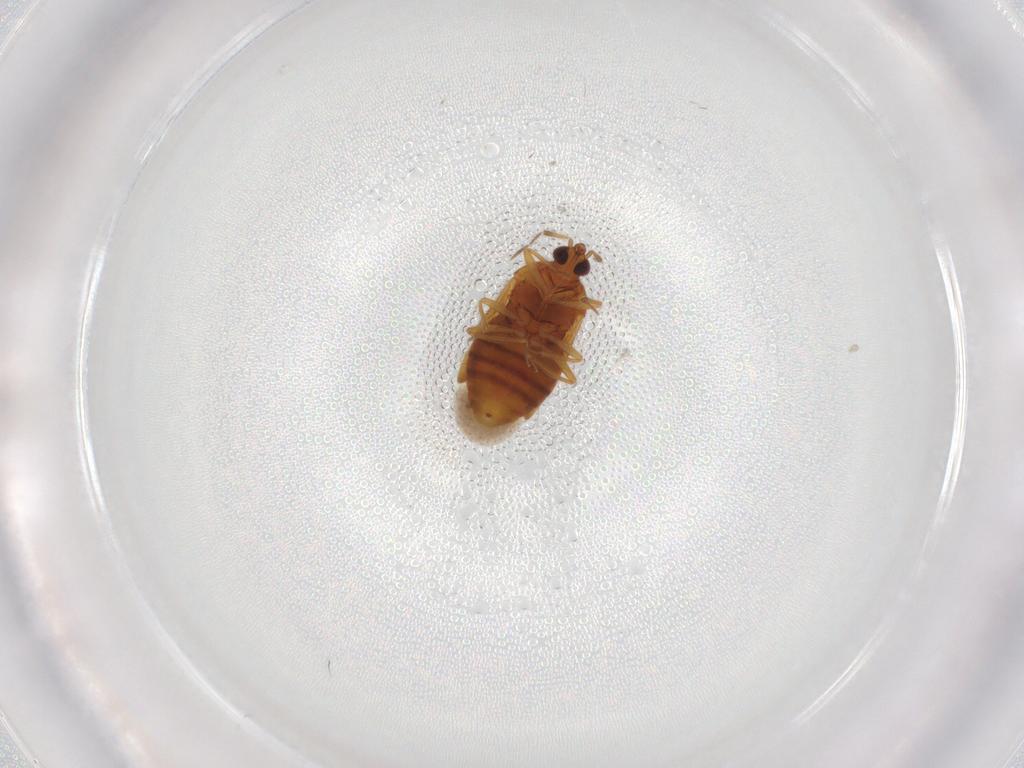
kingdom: Animalia
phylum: Arthropoda
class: Insecta
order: Hemiptera
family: Anthocoridae
